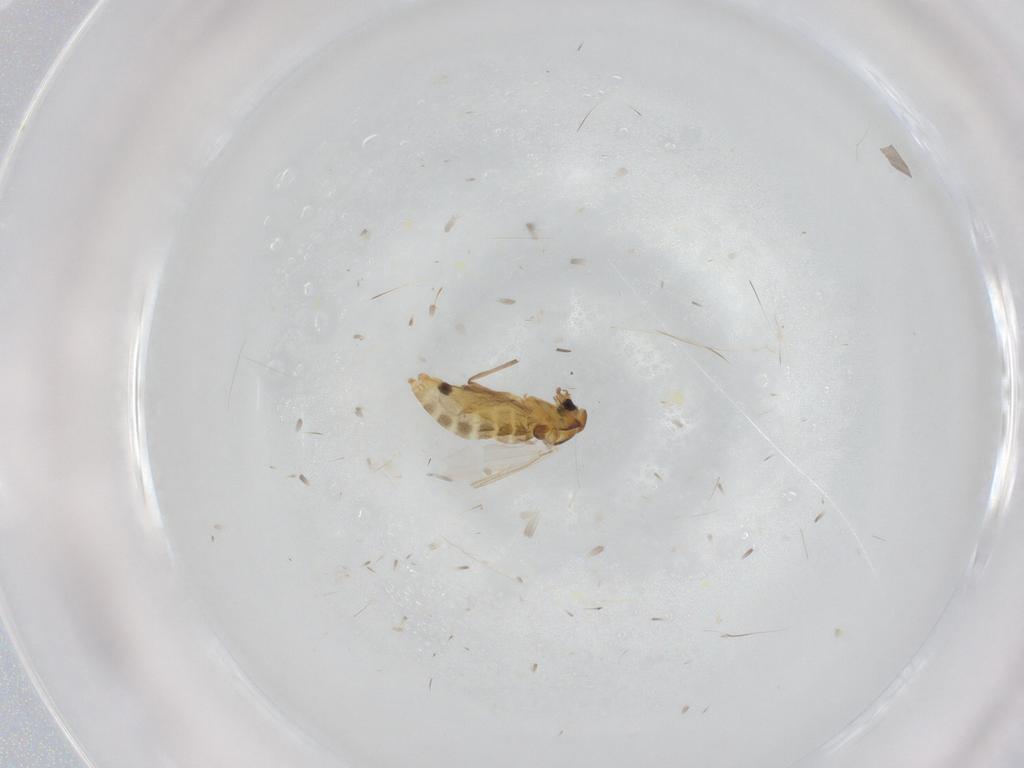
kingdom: Animalia
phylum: Arthropoda
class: Insecta
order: Diptera
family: Chironomidae
